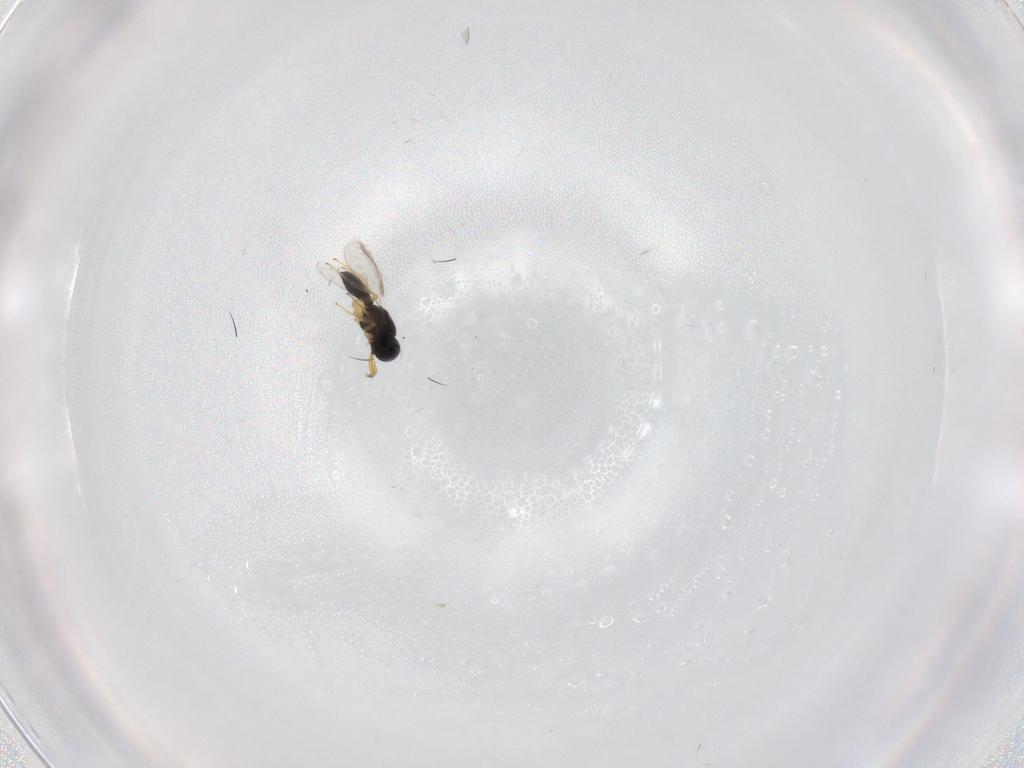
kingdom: Animalia
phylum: Arthropoda
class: Insecta
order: Hymenoptera
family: Scelionidae
